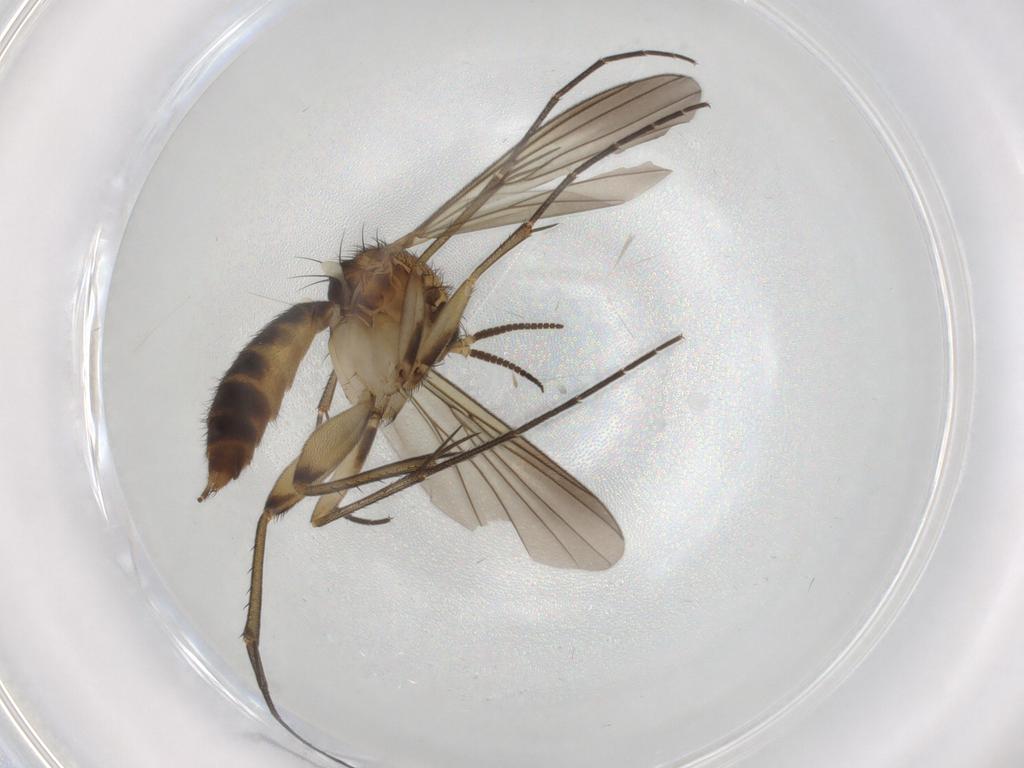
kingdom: Animalia
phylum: Arthropoda
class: Insecta
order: Diptera
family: Mycetophilidae
